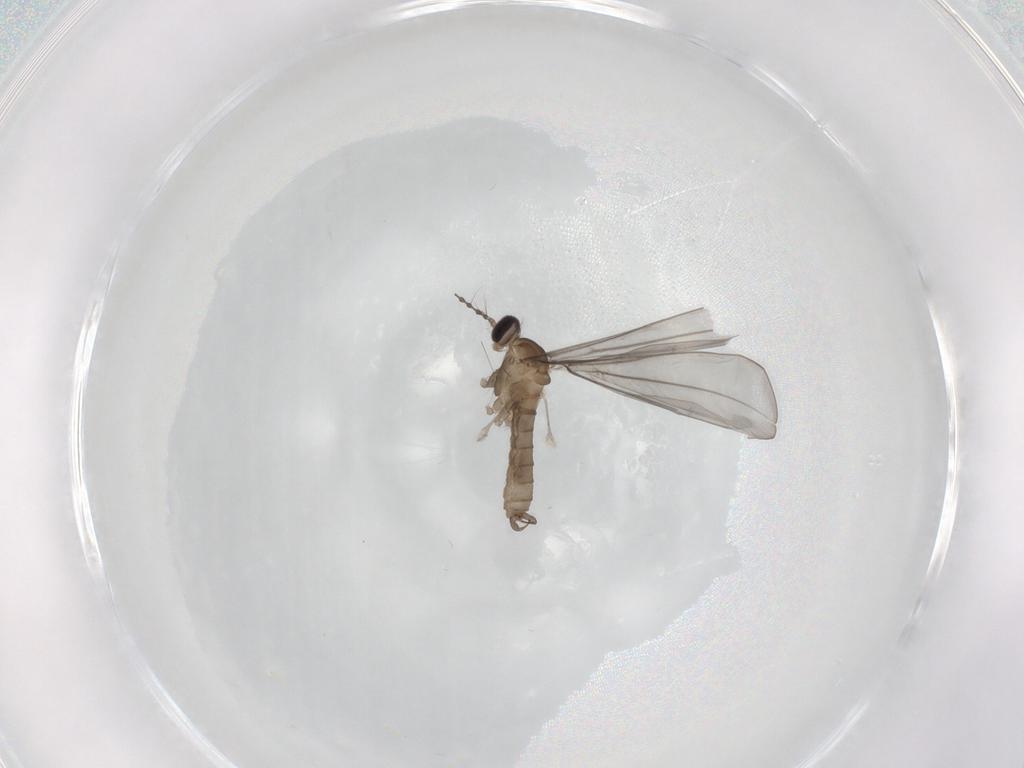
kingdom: Animalia
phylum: Arthropoda
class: Insecta
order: Diptera
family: Cecidomyiidae
